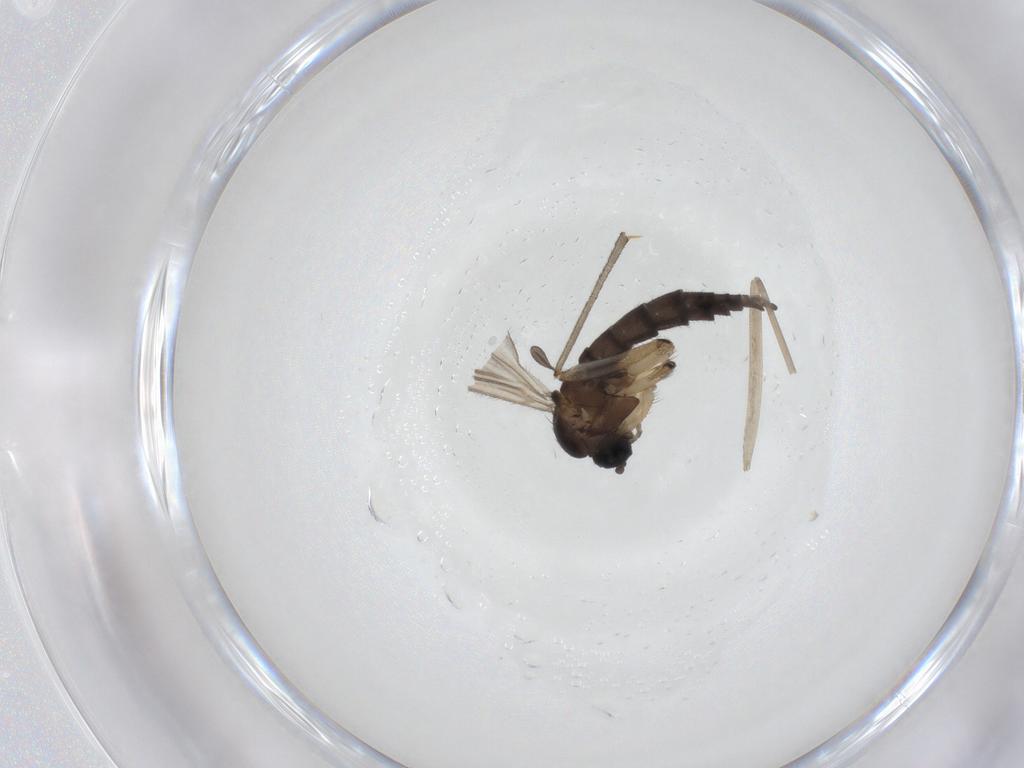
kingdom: Animalia
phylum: Arthropoda
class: Insecta
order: Diptera
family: Sciaridae
